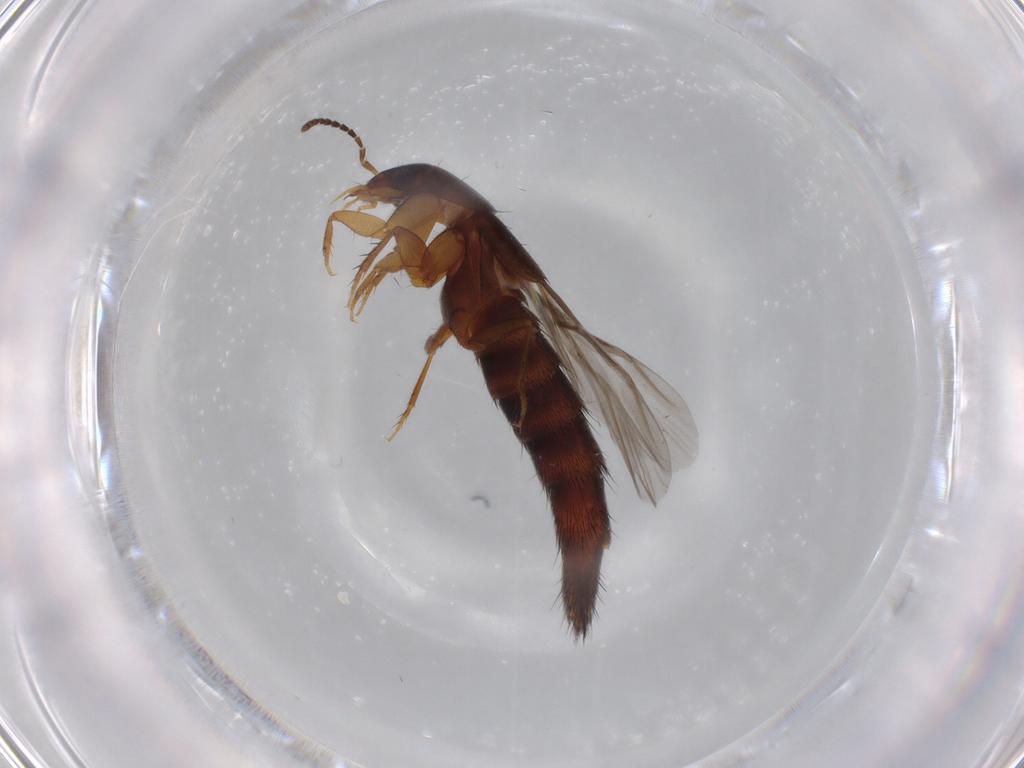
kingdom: Animalia
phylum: Arthropoda
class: Insecta
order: Coleoptera
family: Staphylinidae
